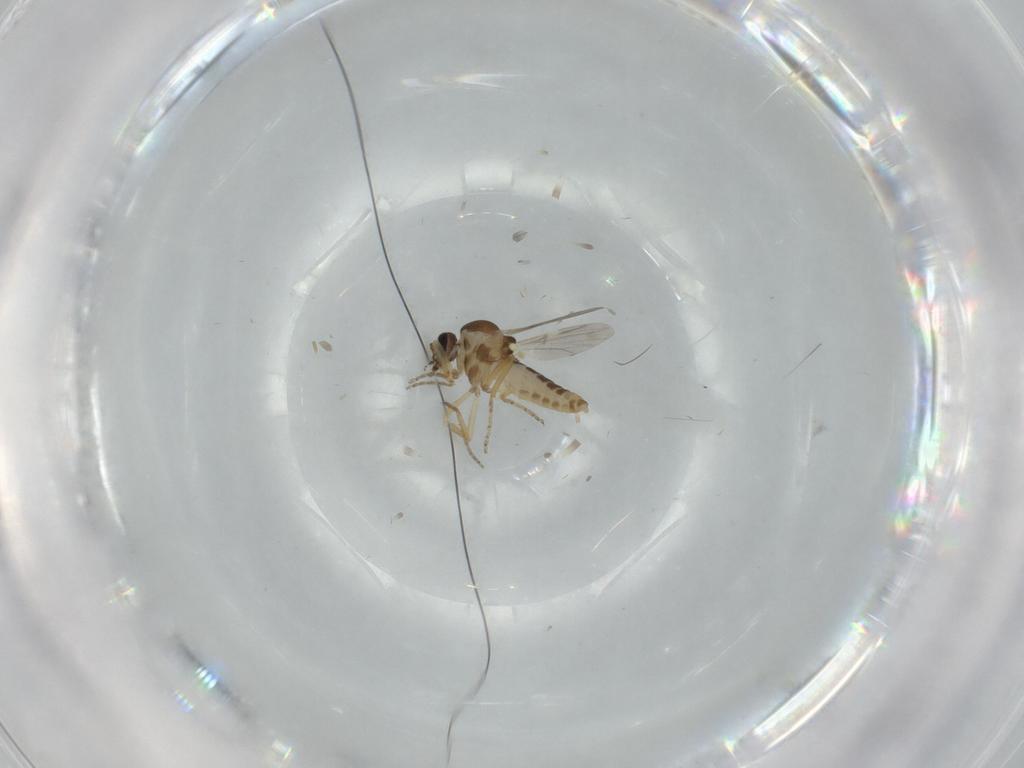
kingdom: Animalia
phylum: Arthropoda
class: Insecta
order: Diptera
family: Ceratopogonidae
